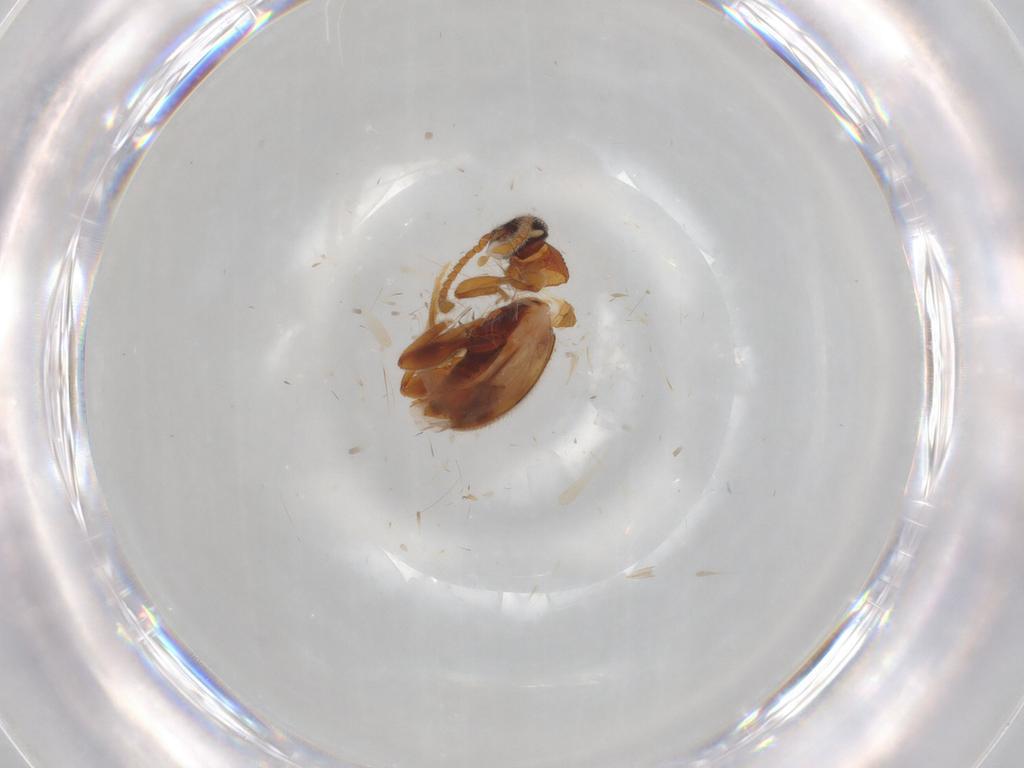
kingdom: Animalia
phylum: Arthropoda
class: Insecta
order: Coleoptera
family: Aderidae
